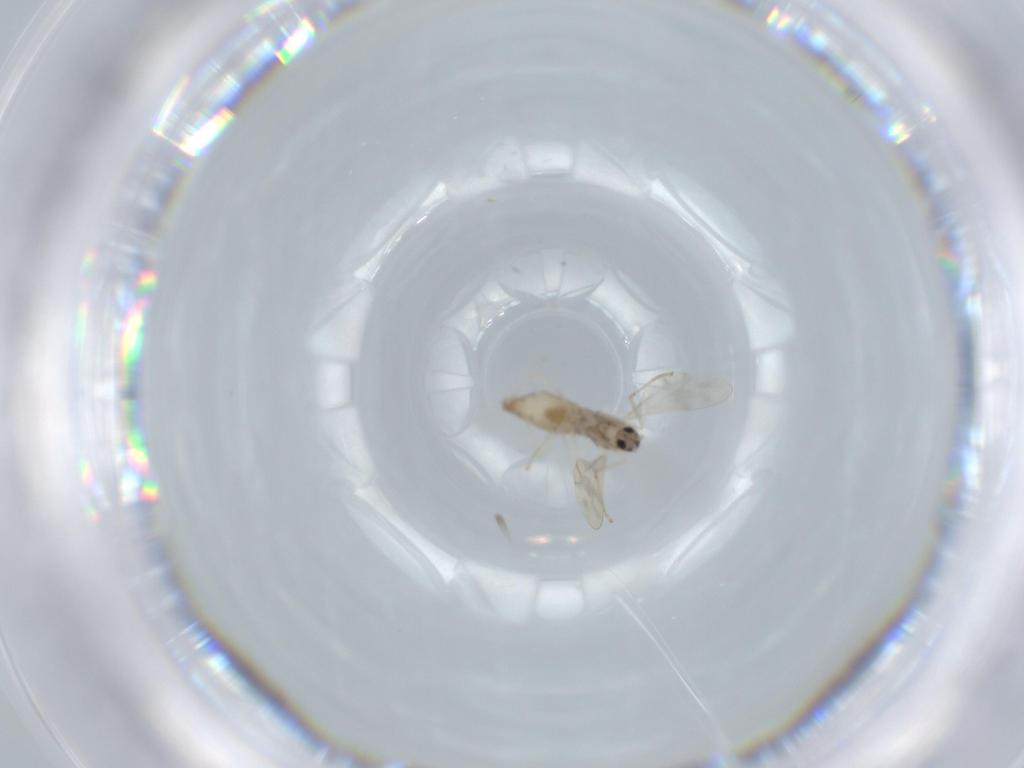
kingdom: Animalia
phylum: Arthropoda
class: Insecta
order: Diptera
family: Cecidomyiidae
